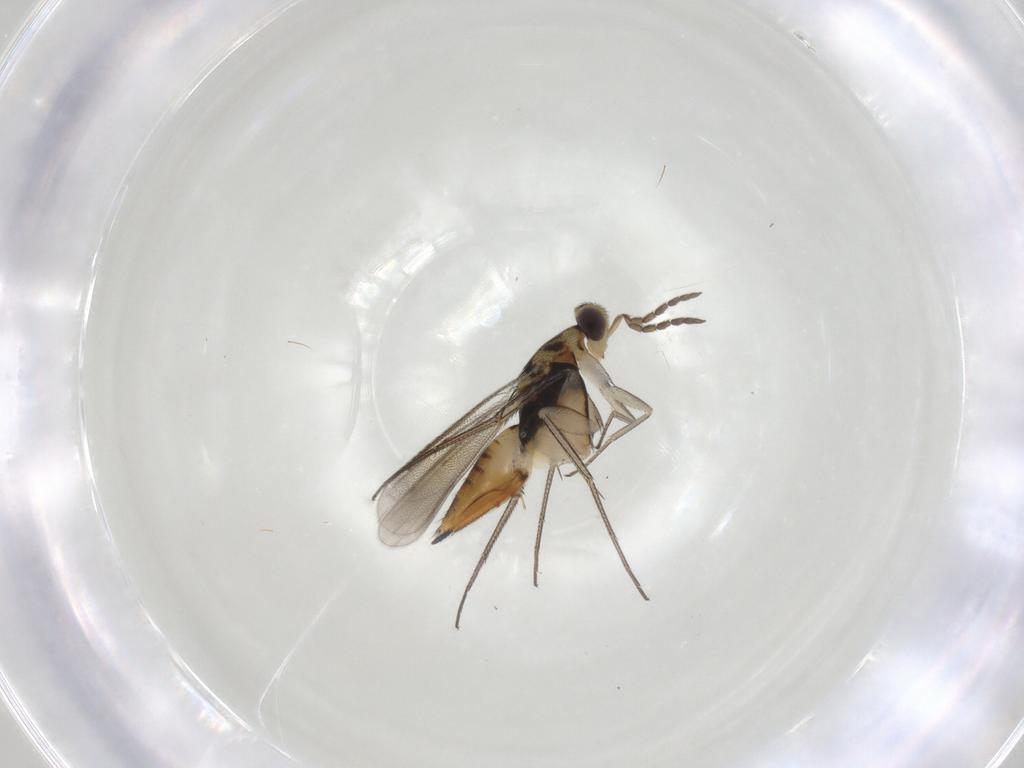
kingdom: Animalia
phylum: Arthropoda
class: Insecta
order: Hymenoptera
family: Eulophidae
